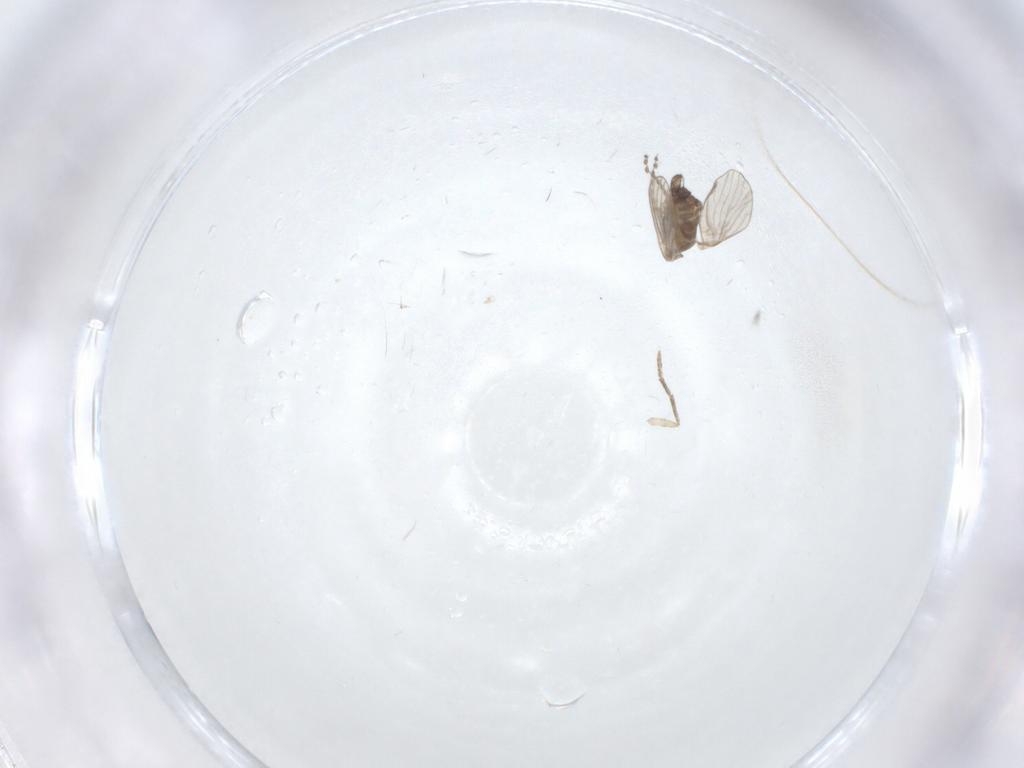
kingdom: Animalia
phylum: Arthropoda
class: Insecta
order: Diptera
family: Psychodidae
